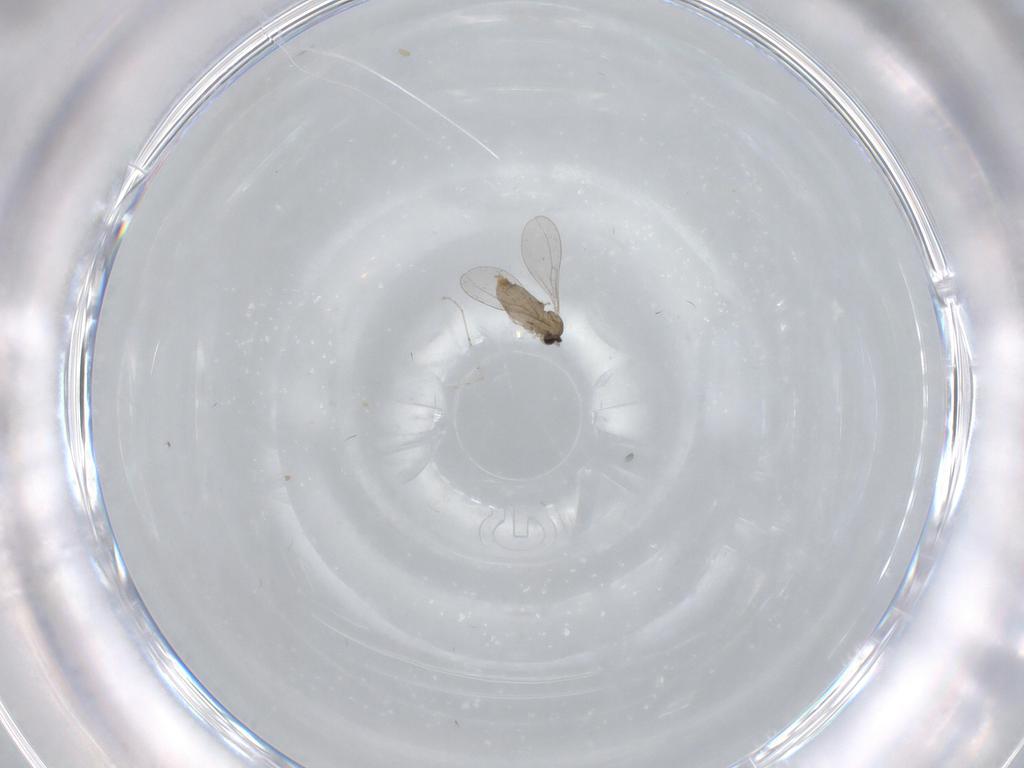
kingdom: Animalia
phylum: Arthropoda
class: Insecta
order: Diptera
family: Cecidomyiidae
